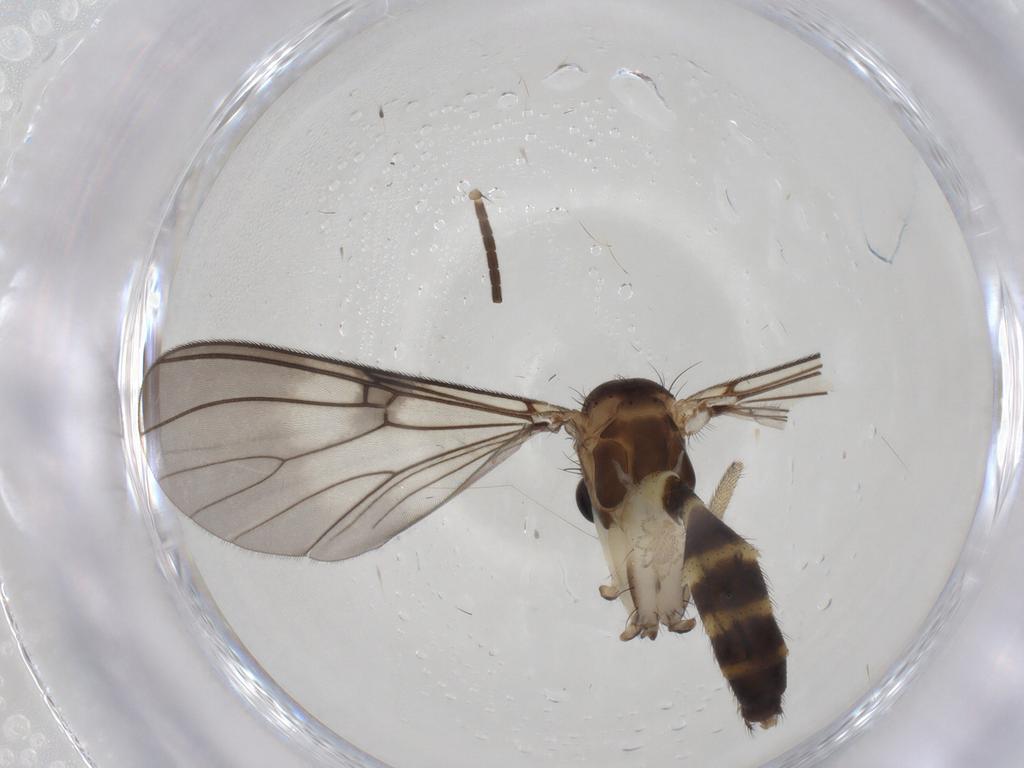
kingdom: Animalia
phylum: Arthropoda
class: Insecta
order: Diptera
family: Mycetophilidae
